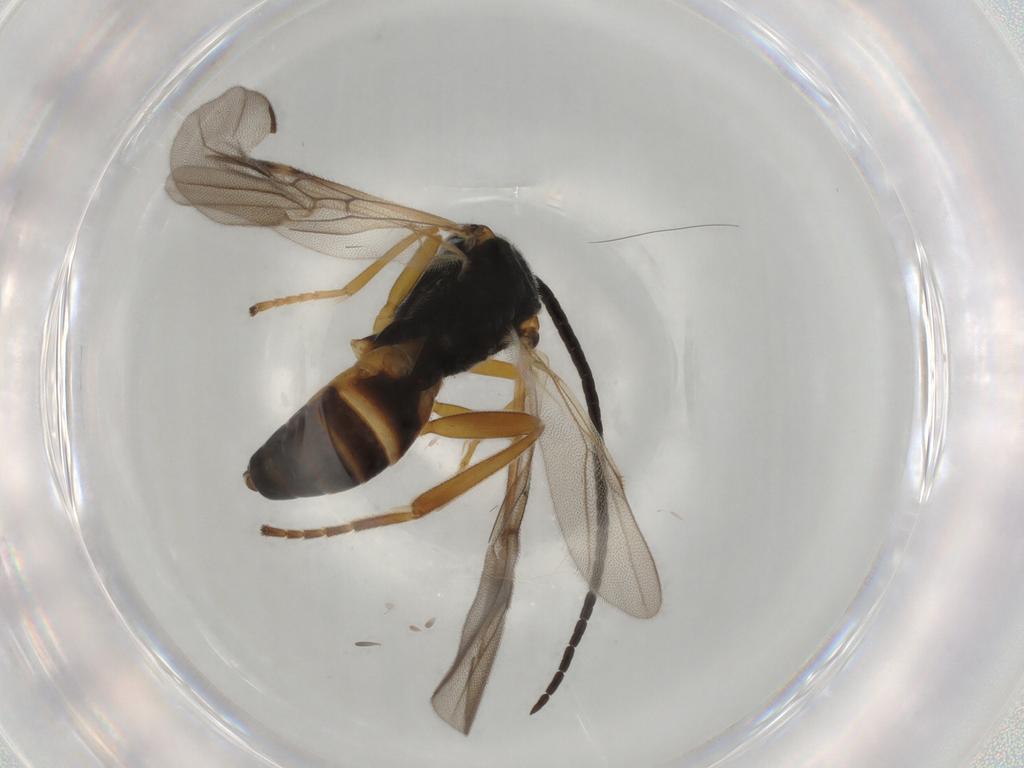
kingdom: Animalia
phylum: Arthropoda
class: Insecta
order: Hymenoptera
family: Braconidae
